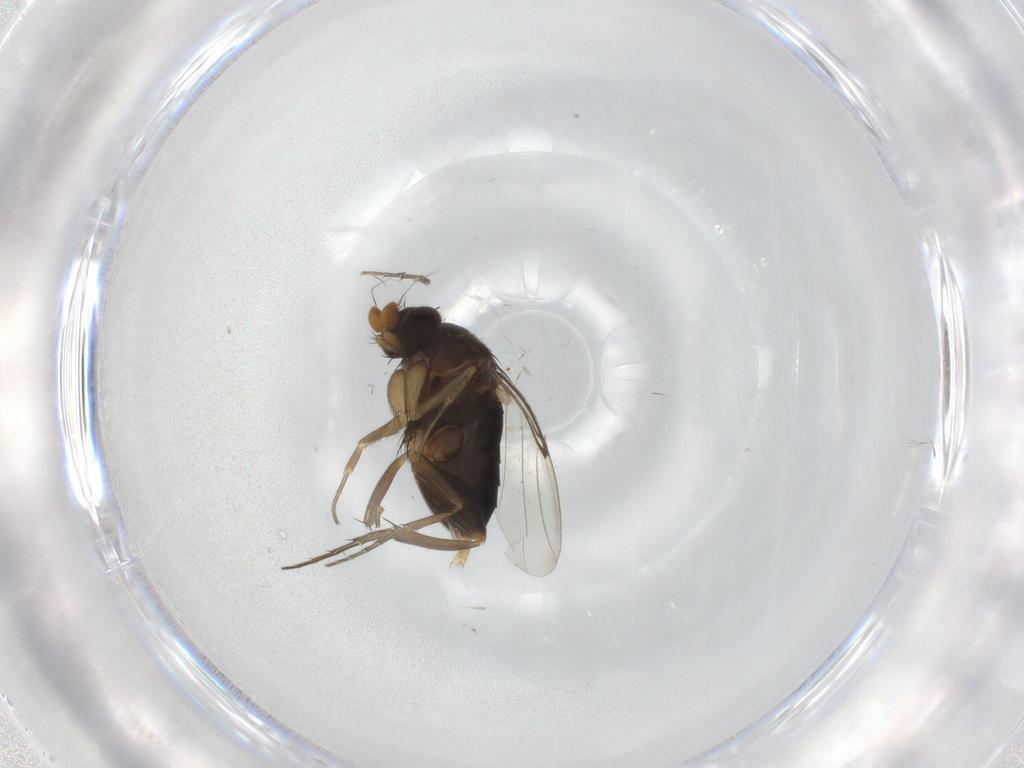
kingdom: Animalia
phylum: Arthropoda
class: Insecta
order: Diptera
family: Phoridae
